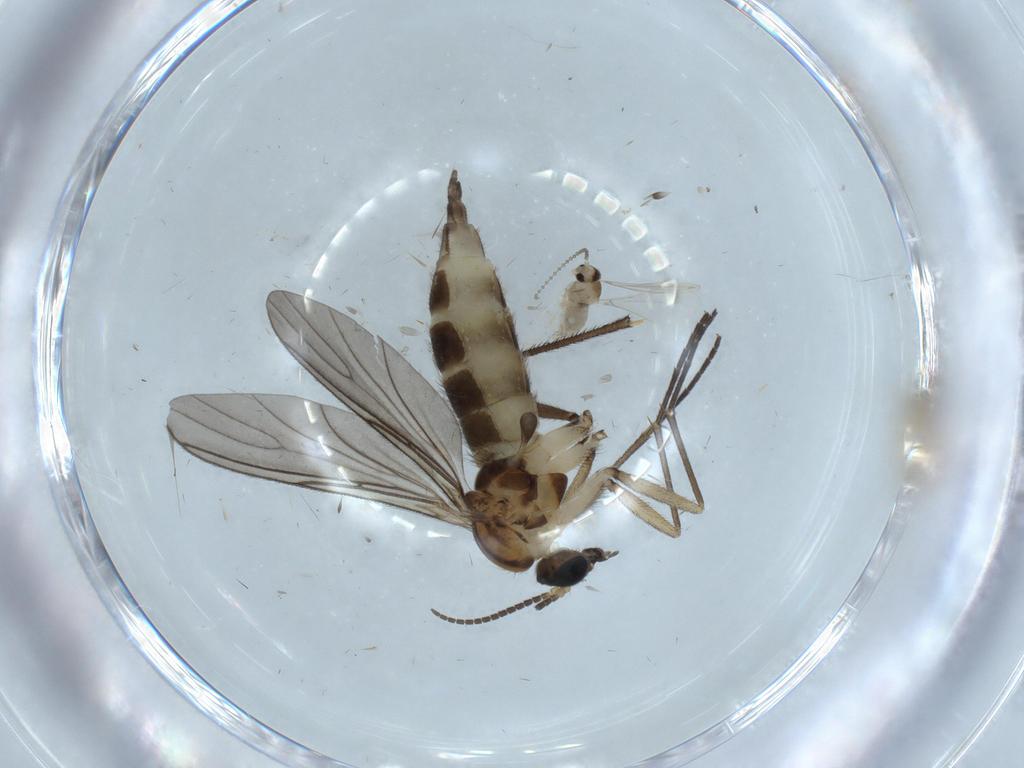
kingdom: Animalia
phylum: Arthropoda
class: Insecta
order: Diptera
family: Sciaridae
